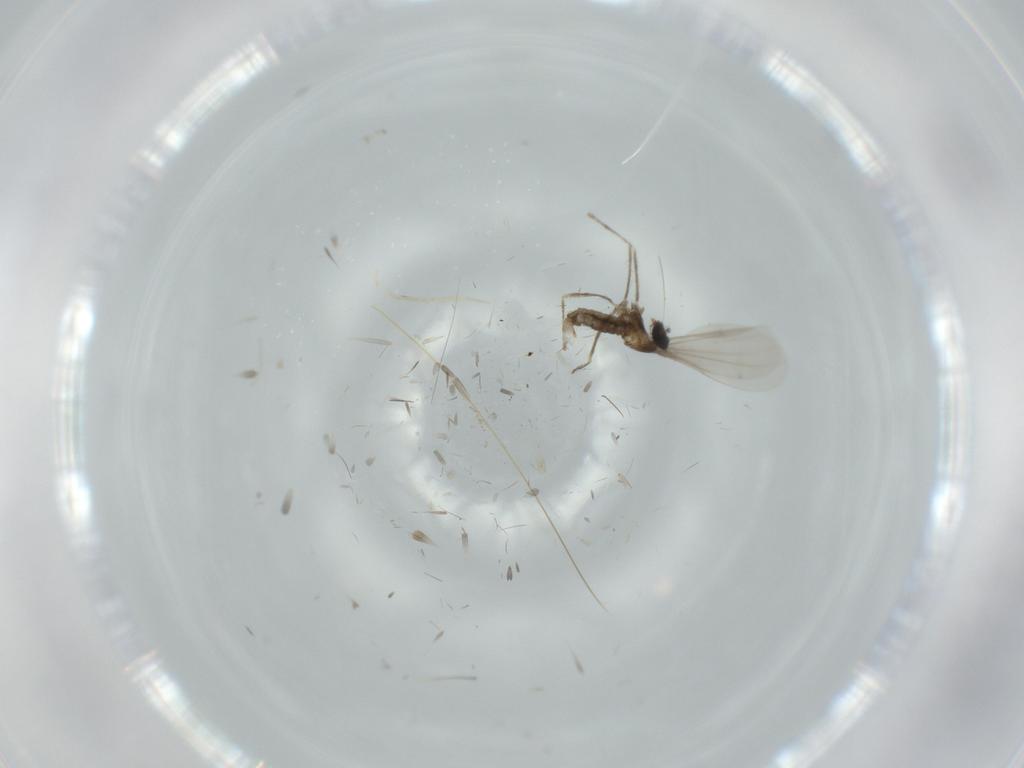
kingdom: Animalia
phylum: Arthropoda
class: Insecta
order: Diptera
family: Cecidomyiidae
